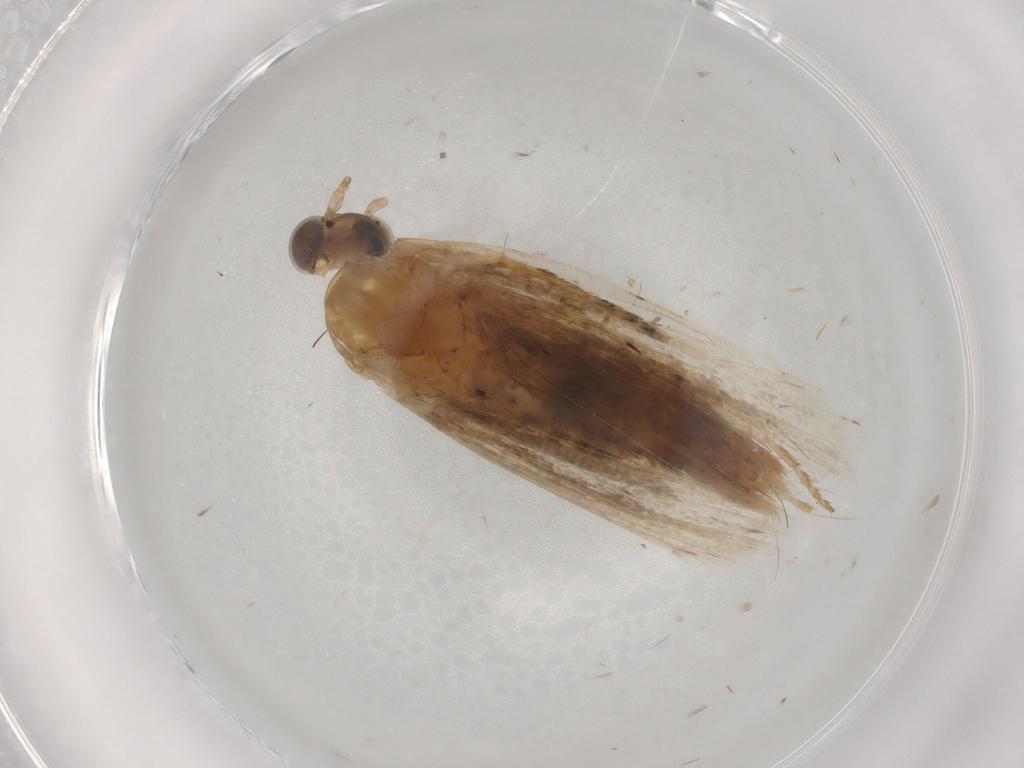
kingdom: Animalia
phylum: Arthropoda
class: Insecta
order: Lepidoptera
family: Tortricidae
